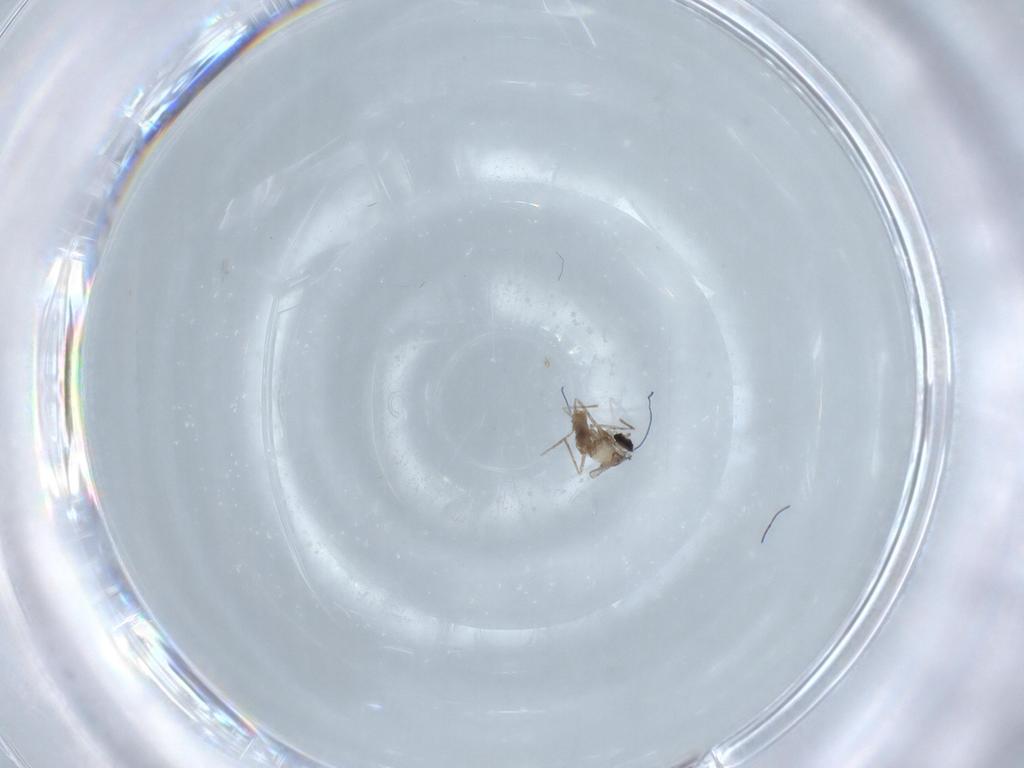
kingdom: Animalia
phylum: Arthropoda
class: Insecta
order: Diptera
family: Cecidomyiidae
